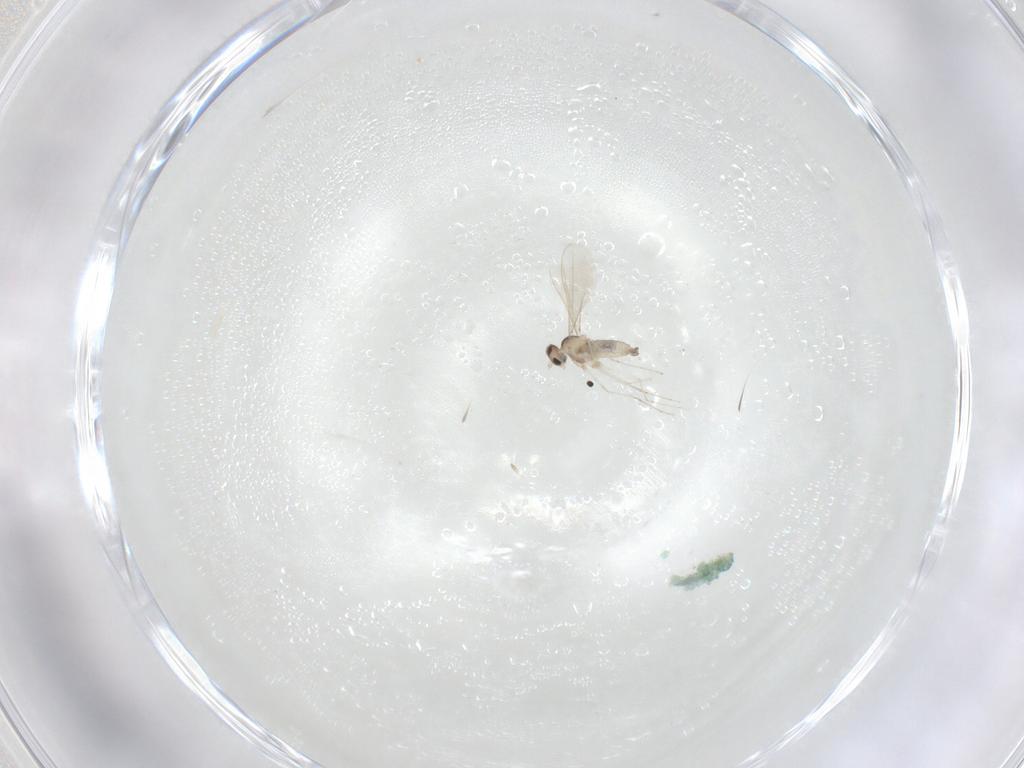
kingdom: Animalia
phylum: Arthropoda
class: Insecta
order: Diptera
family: Cecidomyiidae
